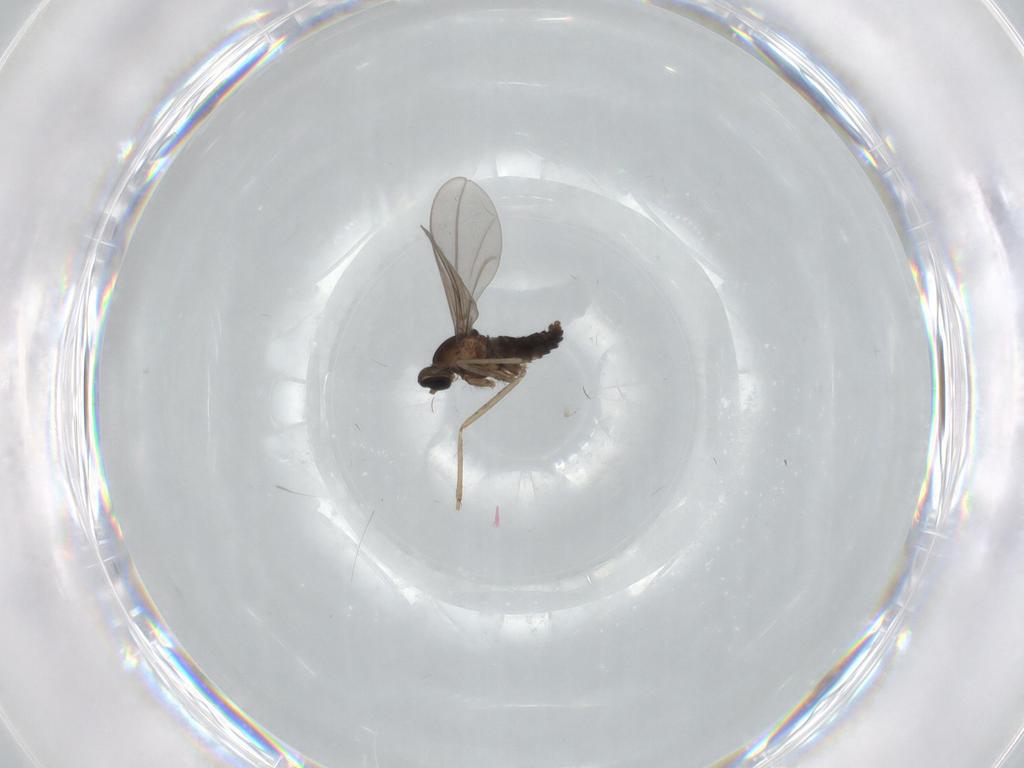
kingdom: Animalia
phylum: Arthropoda
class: Insecta
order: Diptera
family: Cecidomyiidae
